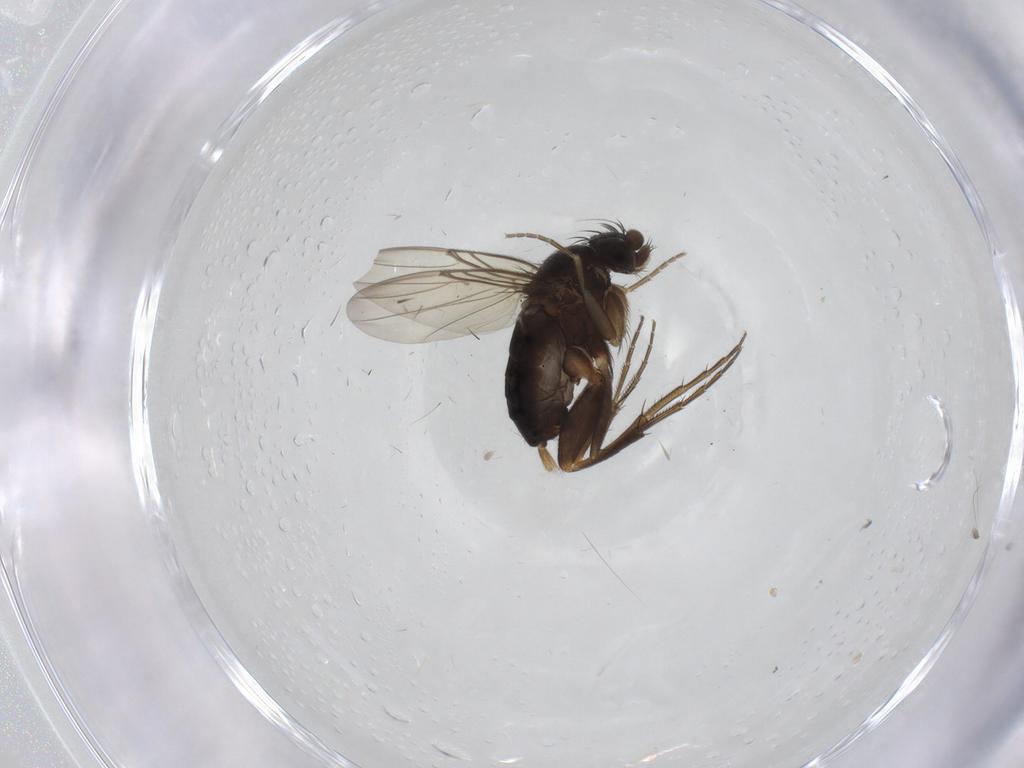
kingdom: Animalia
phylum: Arthropoda
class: Insecta
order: Diptera
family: Phoridae
